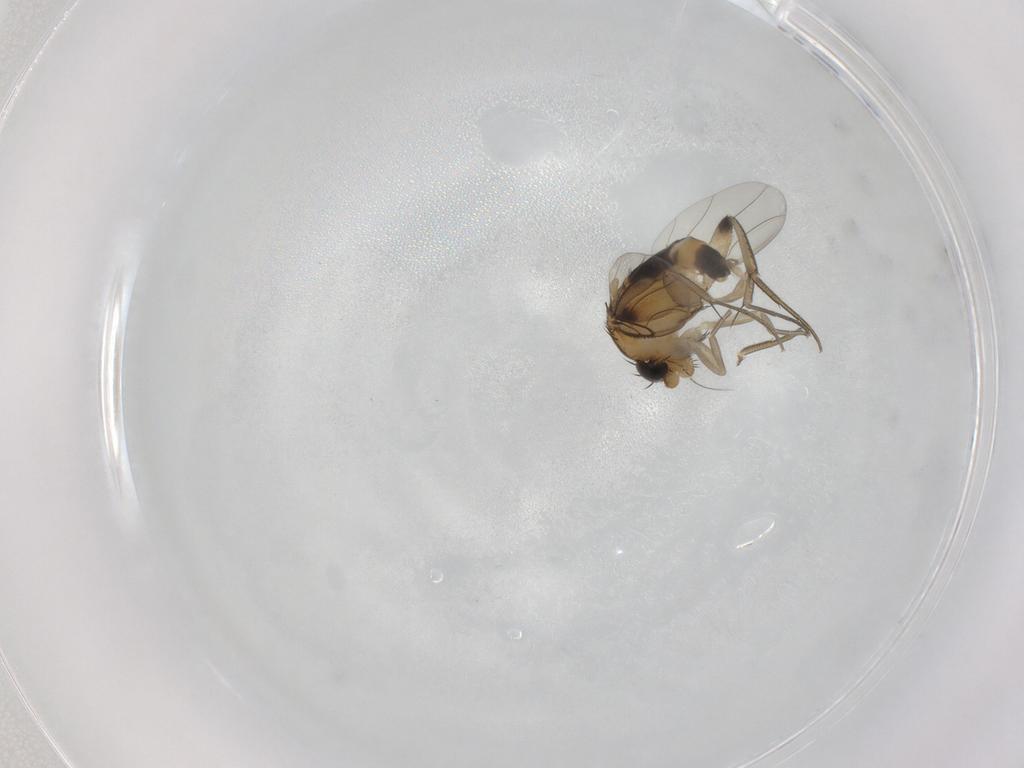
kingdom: Animalia
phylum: Arthropoda
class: Insecta
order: Diptera
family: Phoridae
